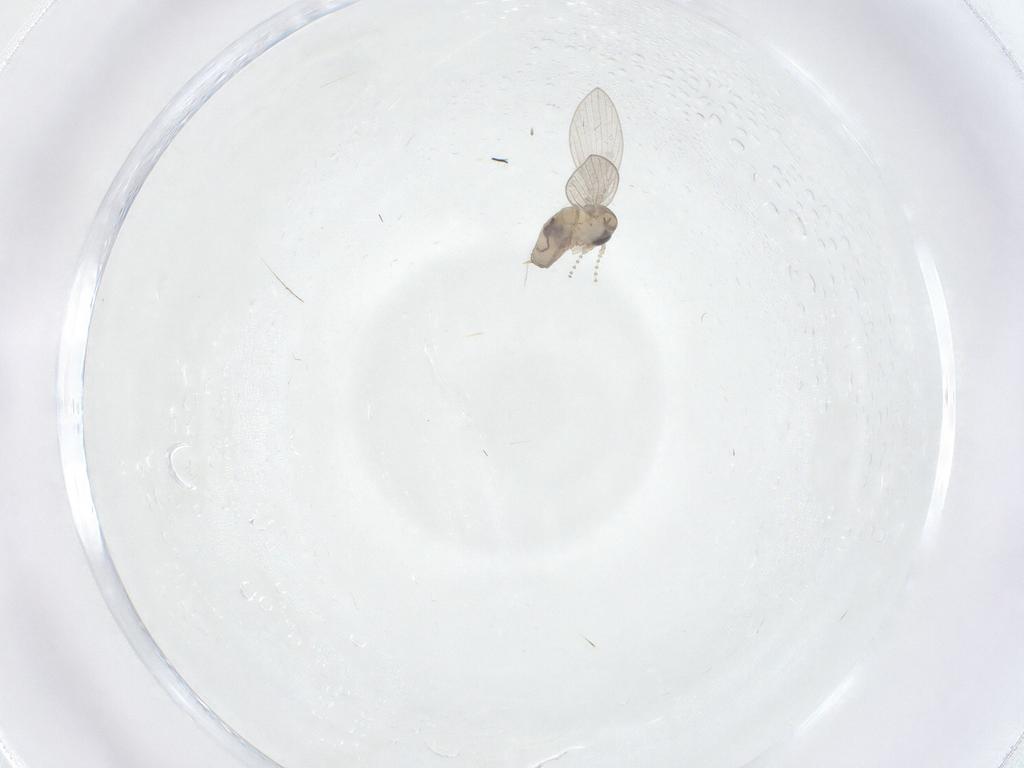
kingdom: Animalia
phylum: Arthropoda
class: Insecta
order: Diptera
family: Psychodidae
